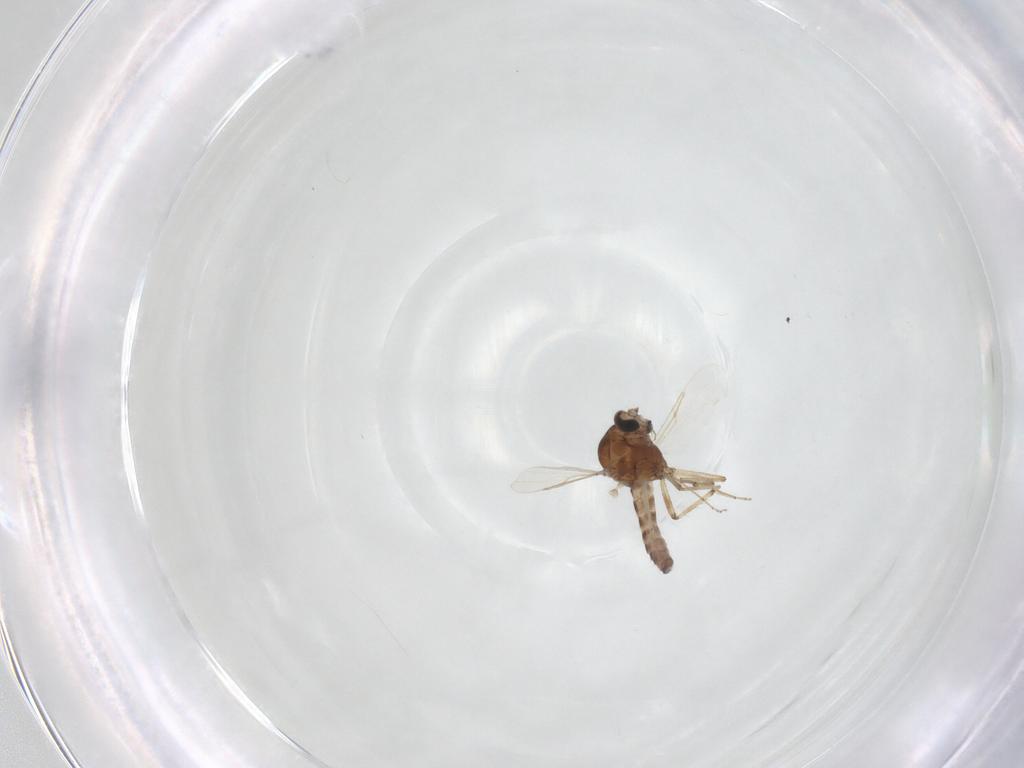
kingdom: Animalia
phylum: Arthropoda
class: Insecta
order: Diptera
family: Ceratopogonidae
